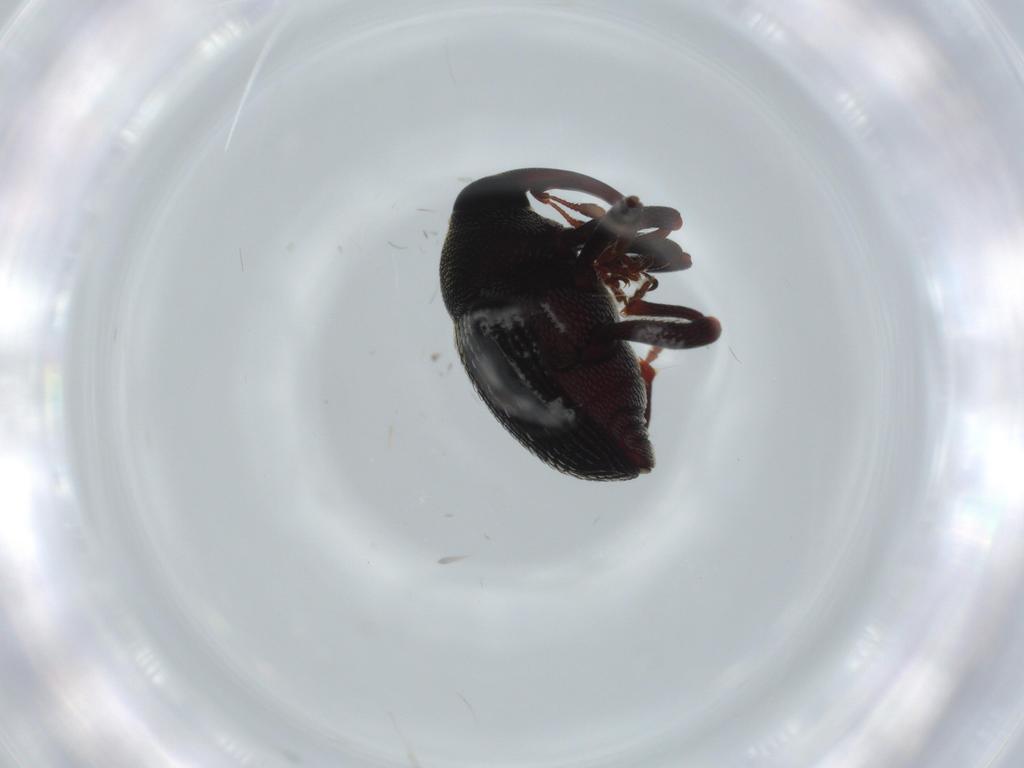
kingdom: Animalia
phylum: Arthropoda
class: Insecta
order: Coleoptera
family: Curculionidae
